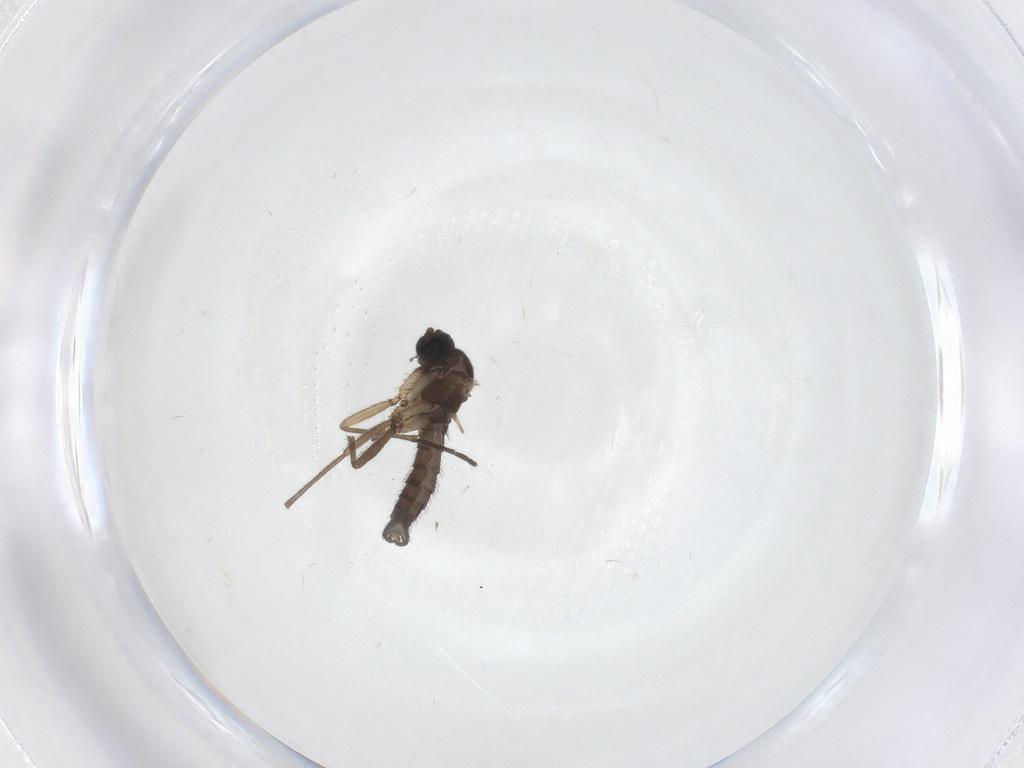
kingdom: Animalia
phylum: Arthropoda
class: Insecta
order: Diptera
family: Sciaridae
